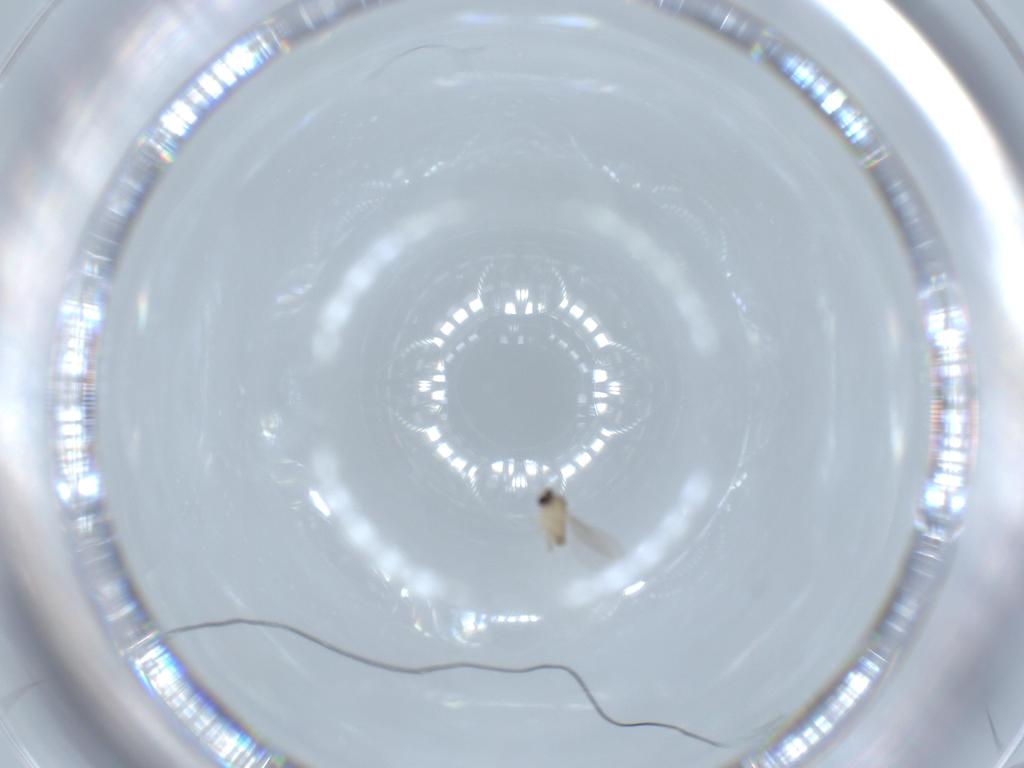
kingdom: Animalia
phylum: Arthropoda
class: Insecta
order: Diptera
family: Cecidomyiidae
